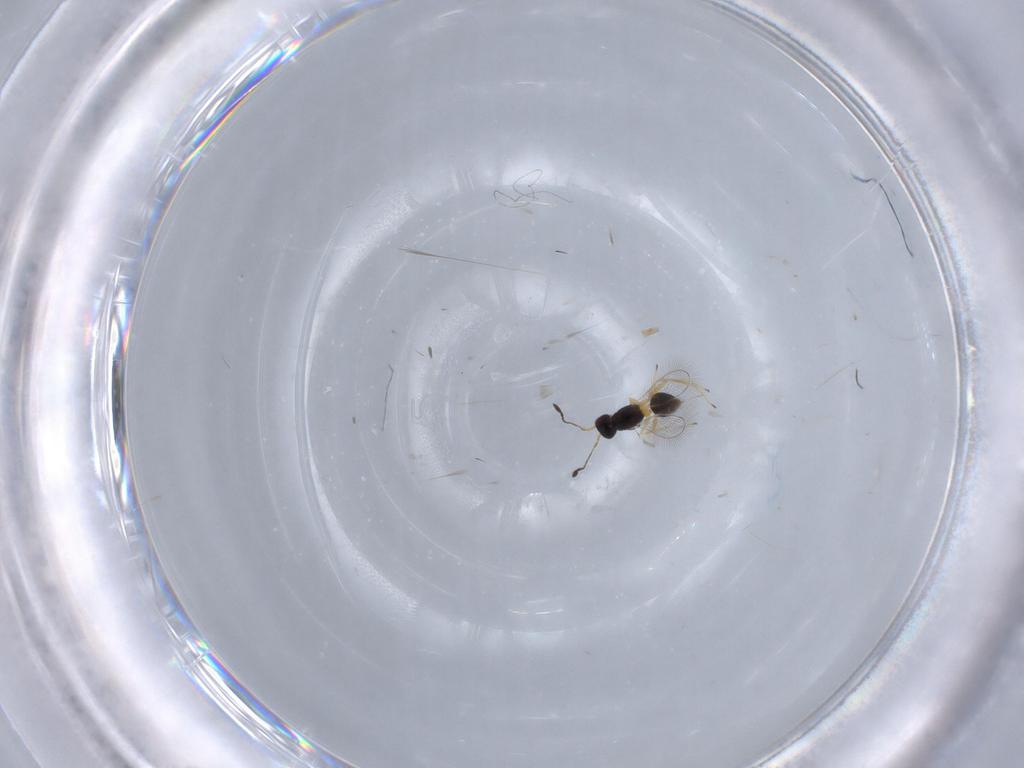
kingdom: Animalia
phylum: Arthropoda
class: Insecta
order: Hymenoptera
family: Mymaridae
